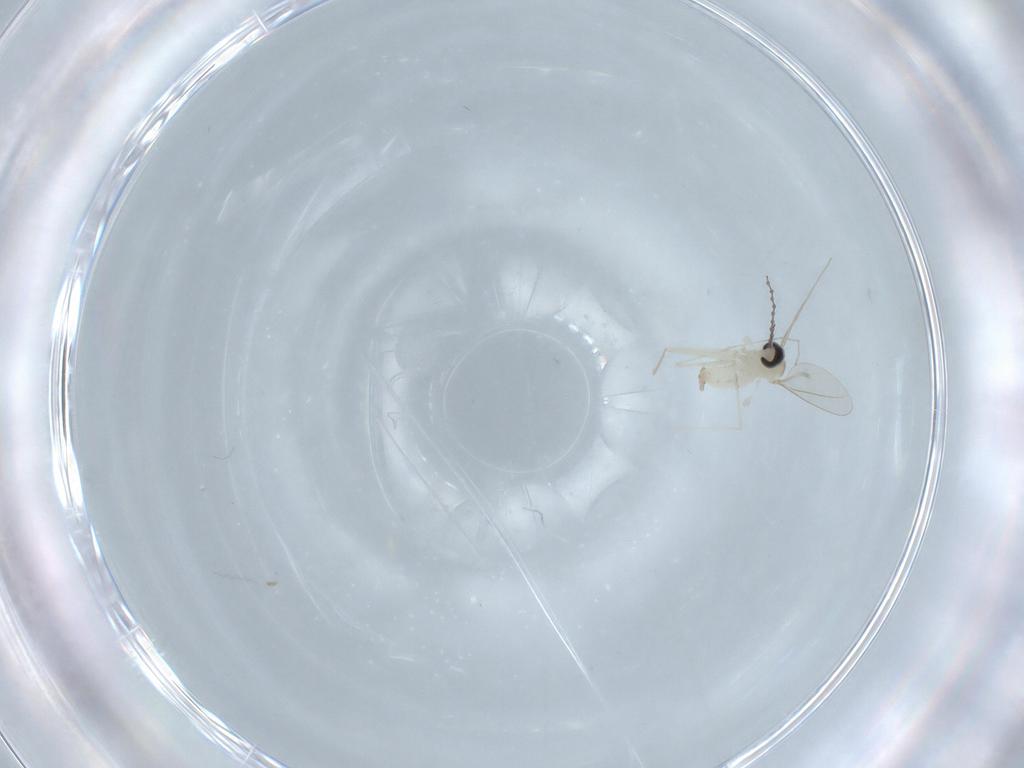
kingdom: Animalia
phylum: Arthropoda
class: Insecta
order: Diptera
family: Cecidomyiidae
